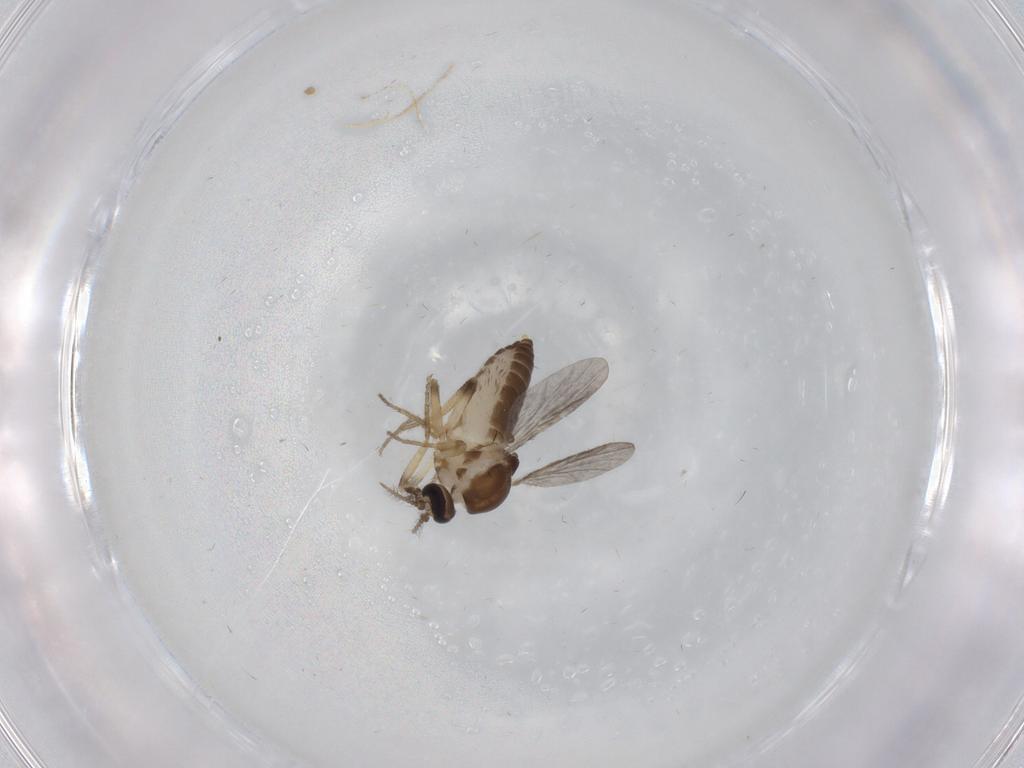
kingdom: Animalia
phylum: Arthropoda
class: Insecta
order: Diptera
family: Ceratopogonidae
